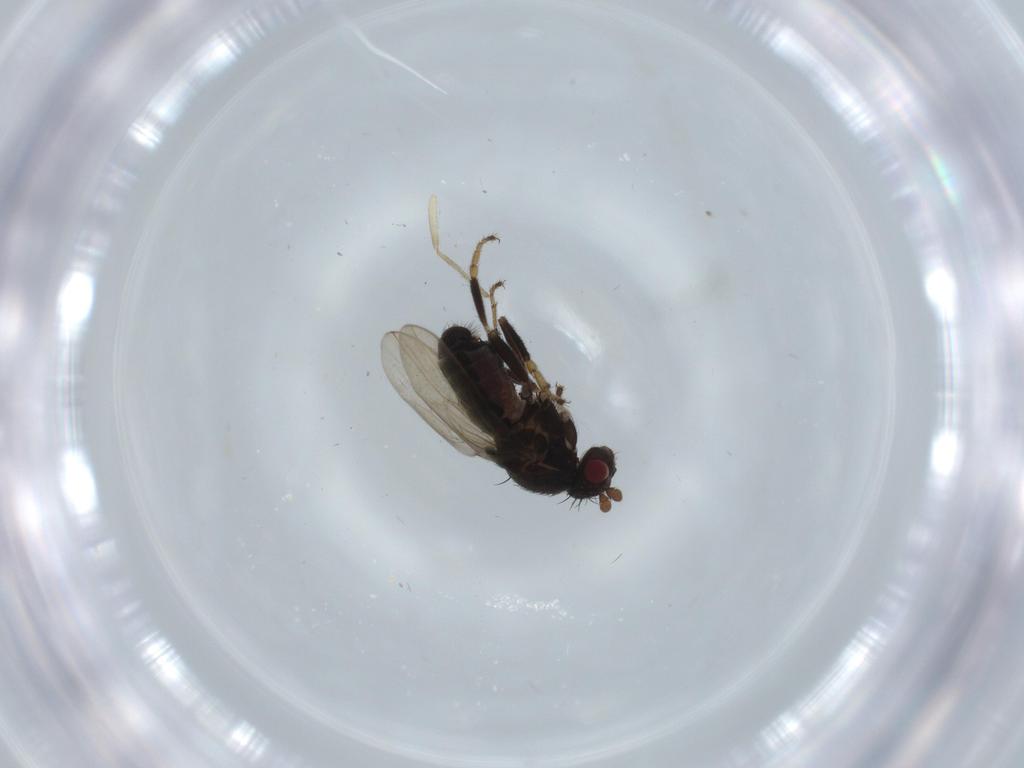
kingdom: Animalia
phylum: Arthropoda
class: Insecta
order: Diptera
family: Sphaeroceridae
